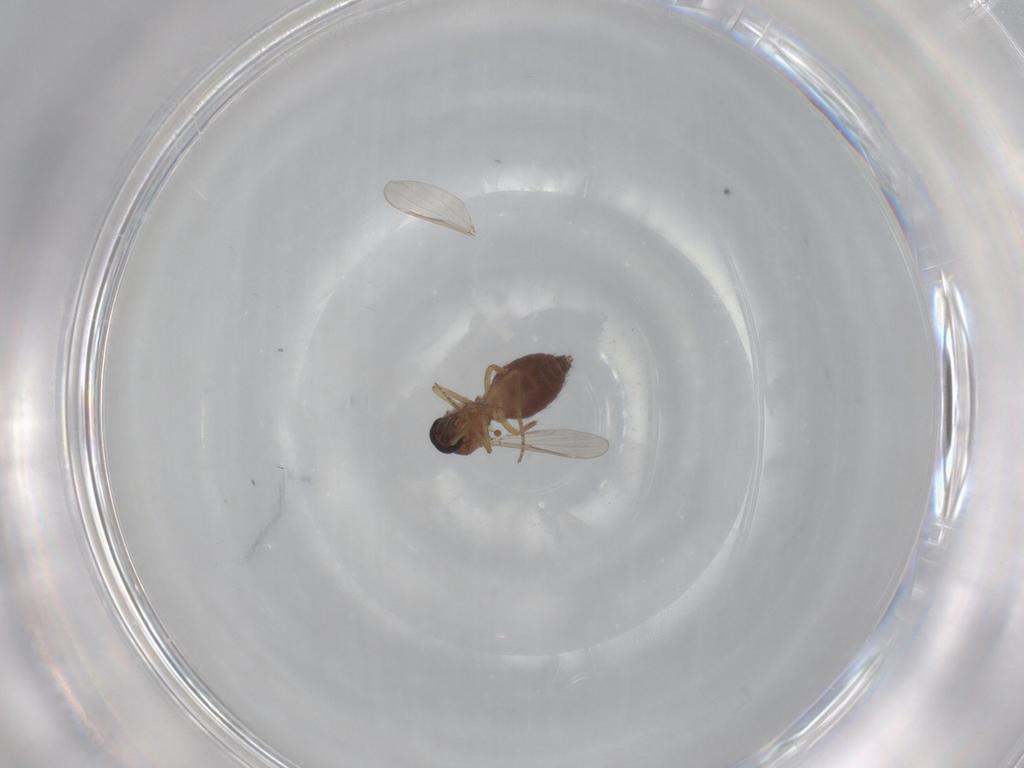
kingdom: Animalia
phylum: Arthropoda
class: Insecta
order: Diptera
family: Ceratopogonidae
